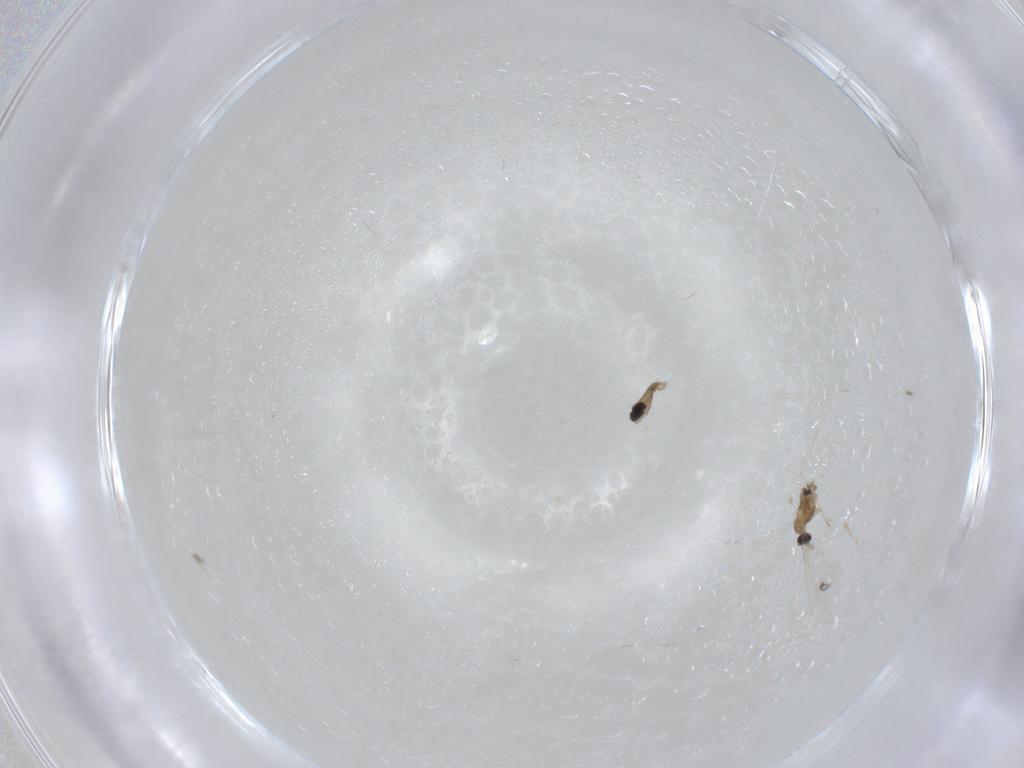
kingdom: Animalia
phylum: Arthropoda
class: Insecta
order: Diptera
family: Cecidomyiidae
